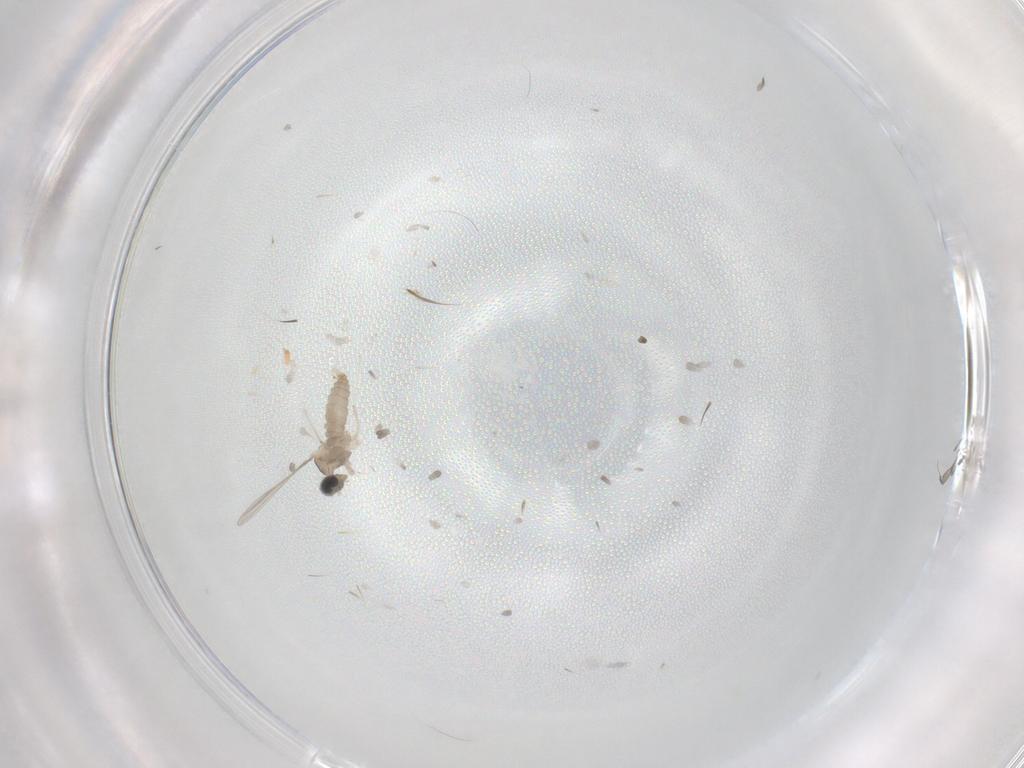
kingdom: Animalia
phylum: Arthropoda
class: Insecta
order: Diptera
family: Cecidomyiidae
